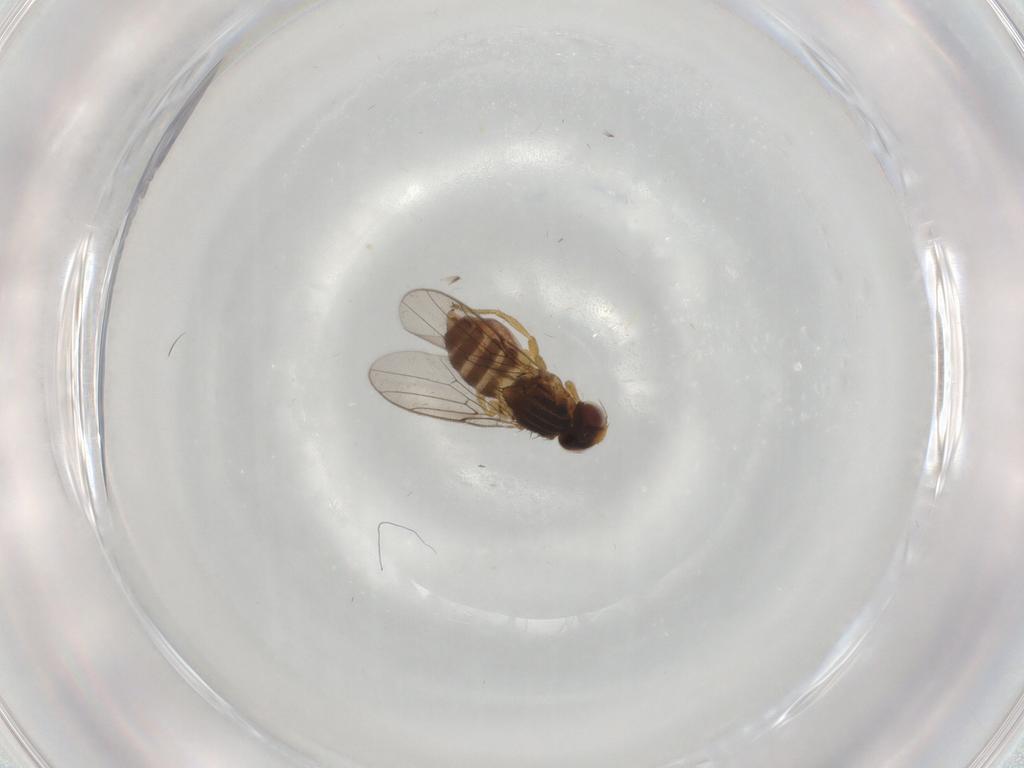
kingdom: Animalia
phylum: Arthropoda
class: Insecta
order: Diptera
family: Chloropidae
